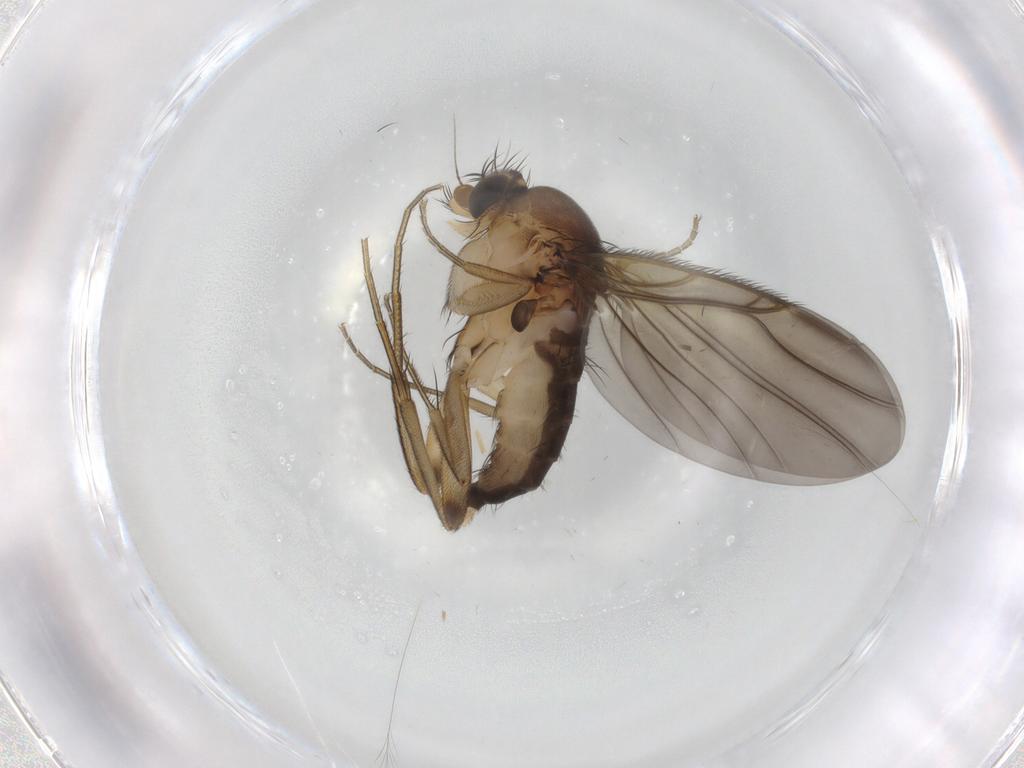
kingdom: Animalia
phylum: Arthropoda
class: Insecta
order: Diptera
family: Phoridae
